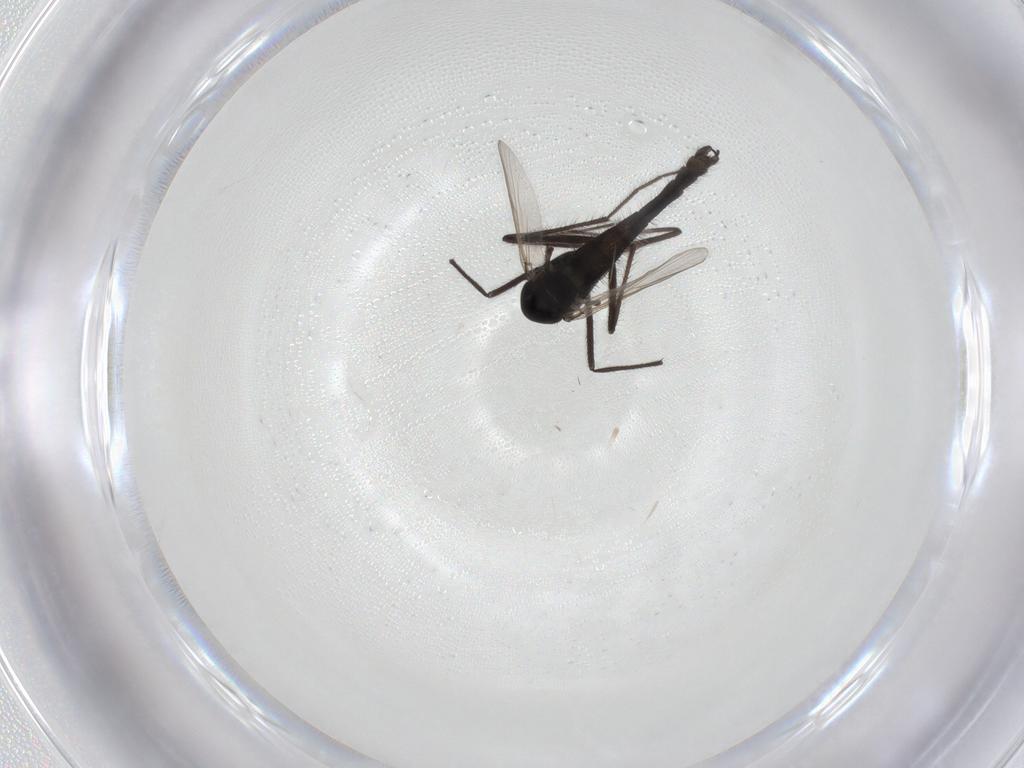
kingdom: Animalia
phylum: Arthropoda
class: Insecta
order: Diptera
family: Chironomidae
